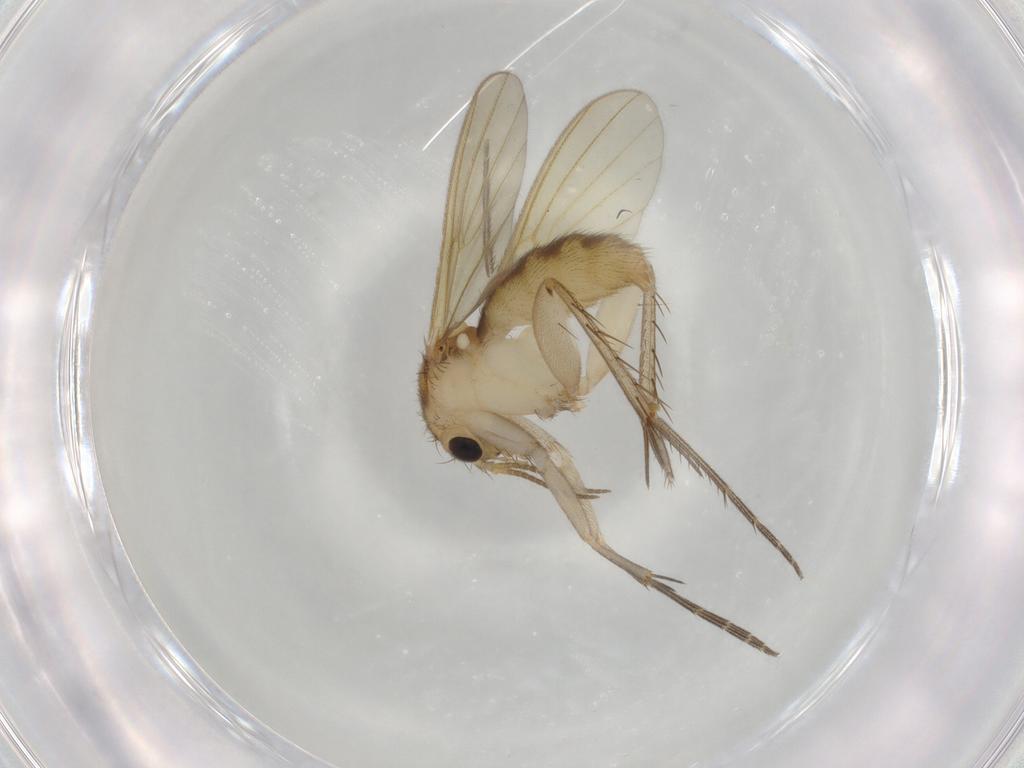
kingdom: Animalia
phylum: Arthropoda
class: Insecta
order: Diptera
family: Mycetophilidae
